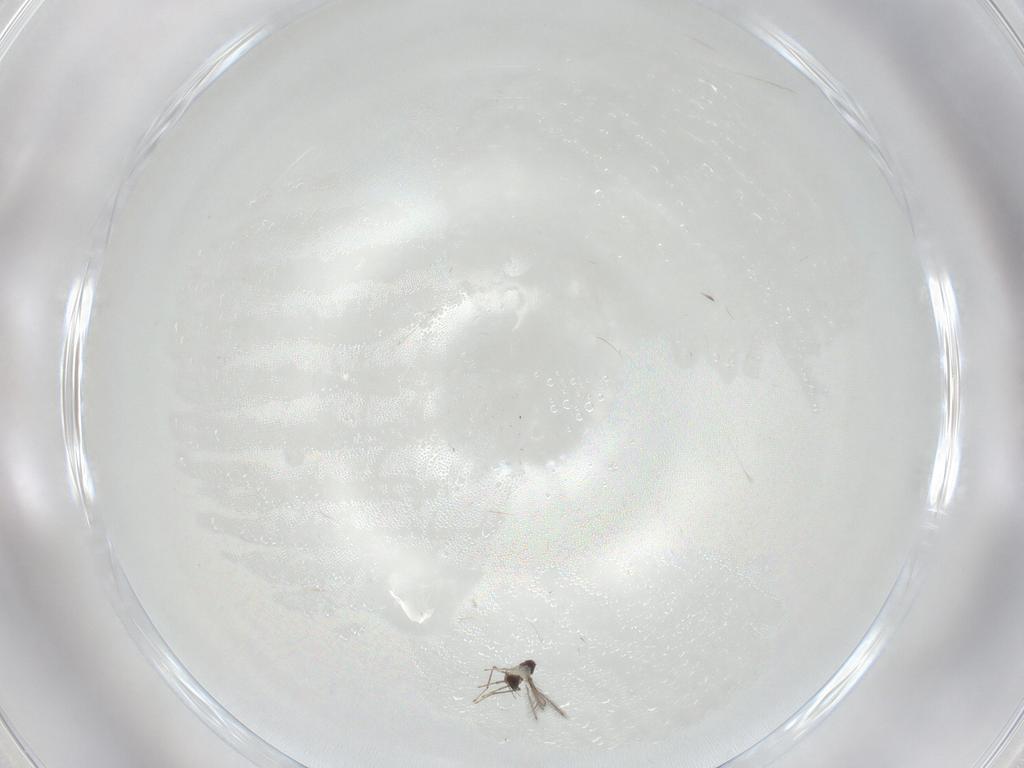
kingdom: Animalia
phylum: Arthropoda
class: Insecta
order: Hymenoptera
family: Mymaridae
